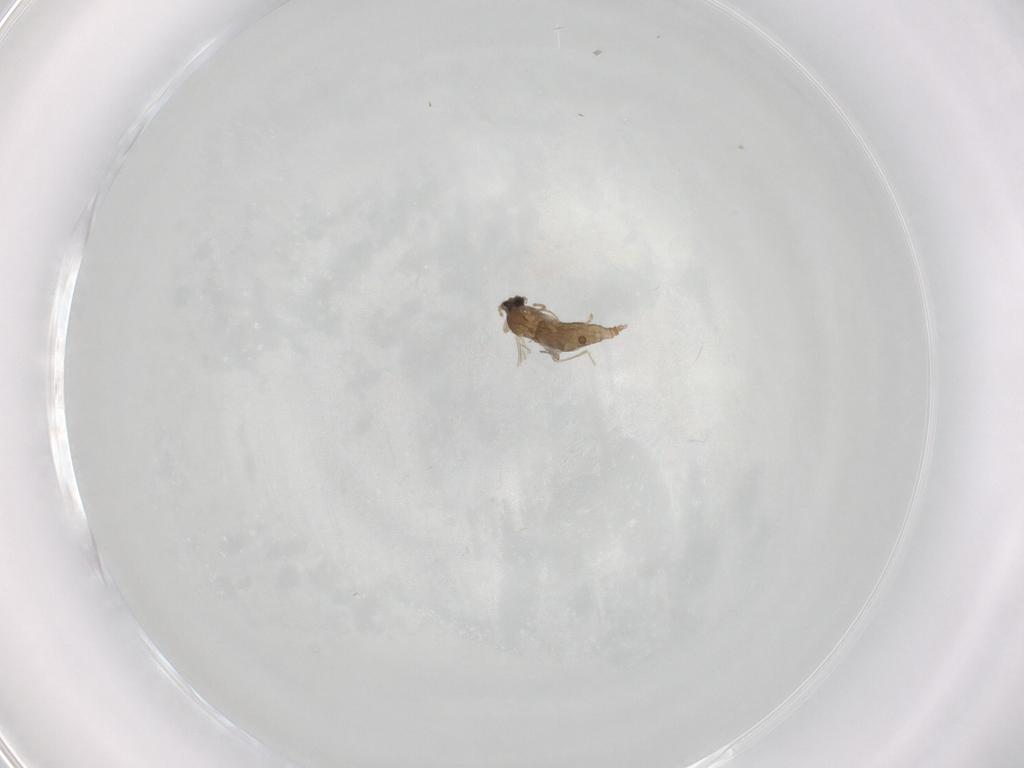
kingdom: Animalia
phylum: Arthropoda
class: Insecta
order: Diptera
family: Cecidomyiidae
